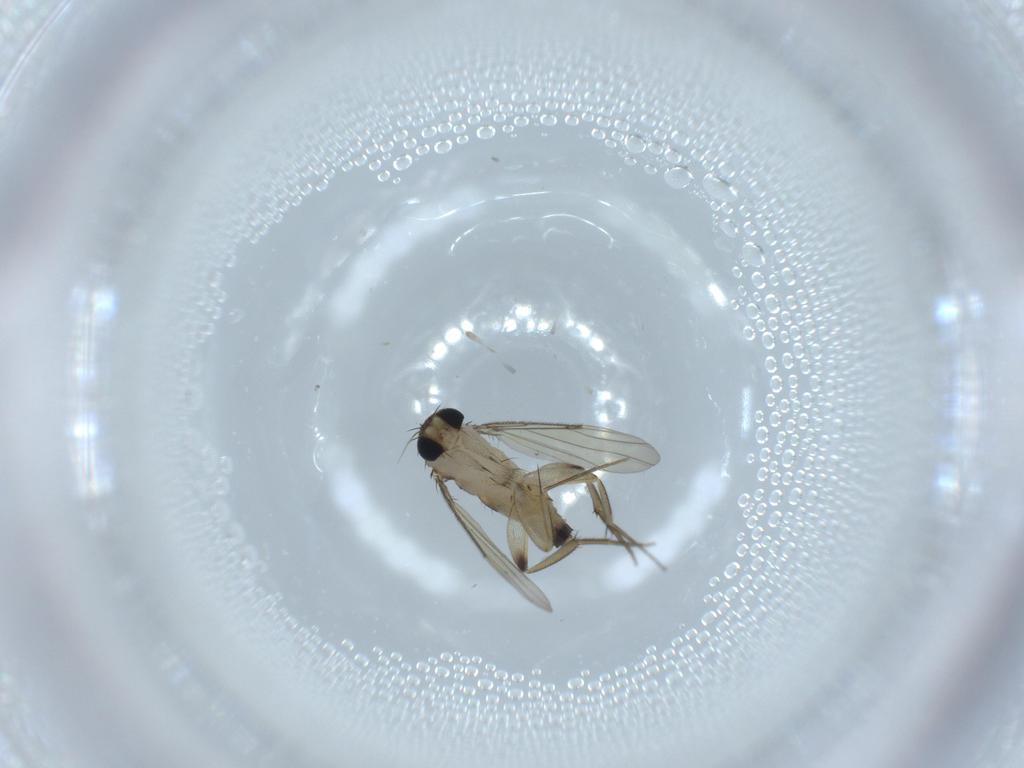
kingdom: Animalia
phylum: Arthropoda
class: Insecta
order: Diptera
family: Phoridae
